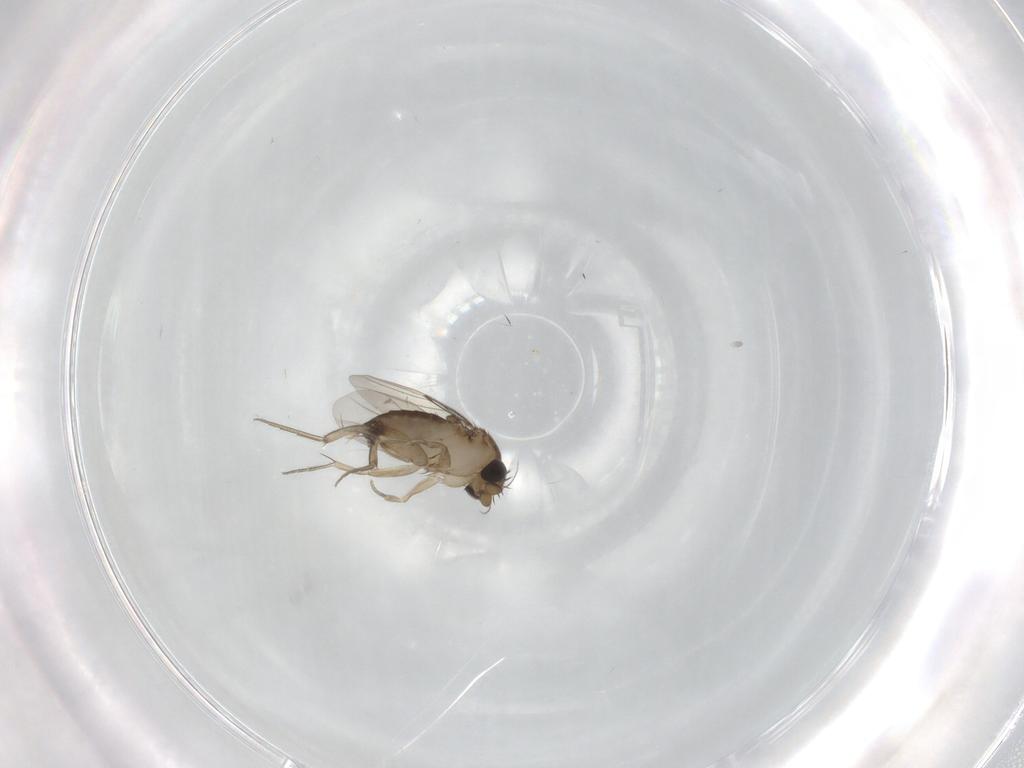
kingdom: Animalia
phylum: Arthropoda
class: Insecta
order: Diptera
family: Phoridae
